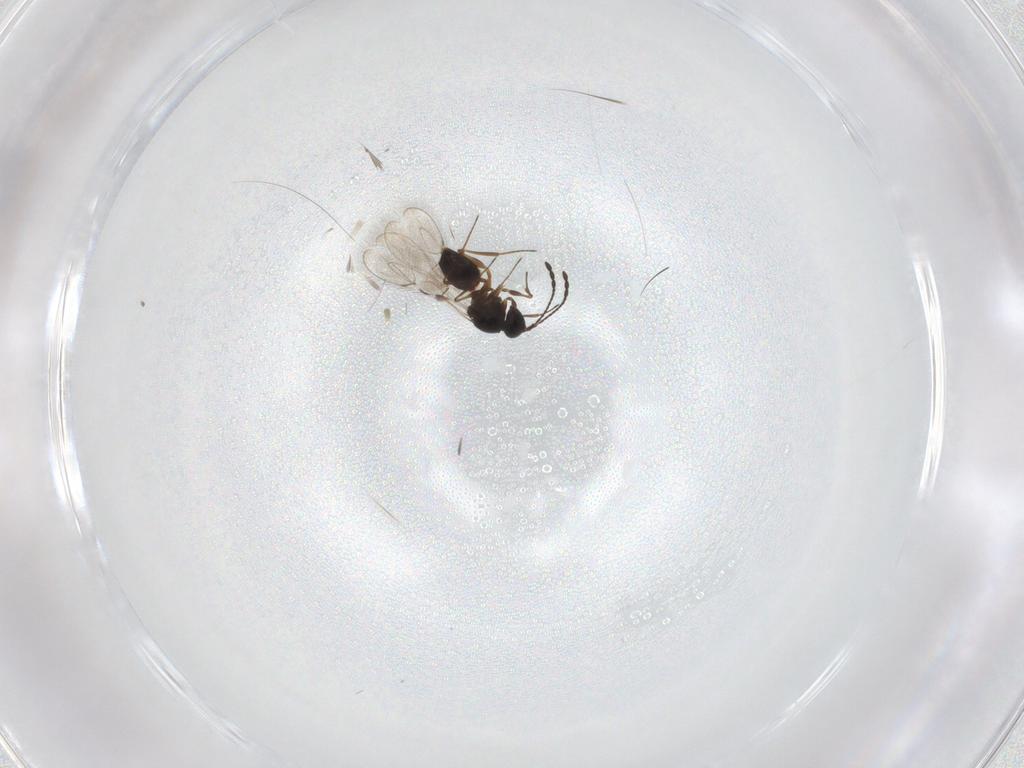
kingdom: Animalia
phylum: Arthropoda
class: Insecta
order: Hymenoptera
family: Figitidae
